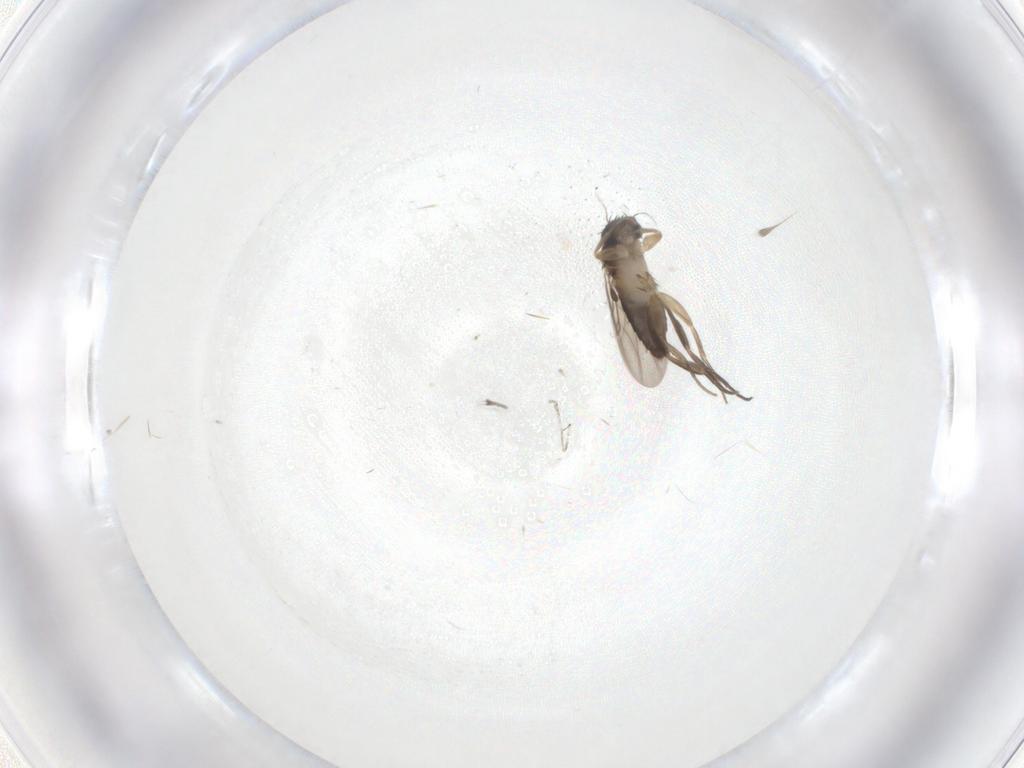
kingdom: Animalia
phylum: Arthropoda
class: Insecta
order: Diptera
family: Phoridae
